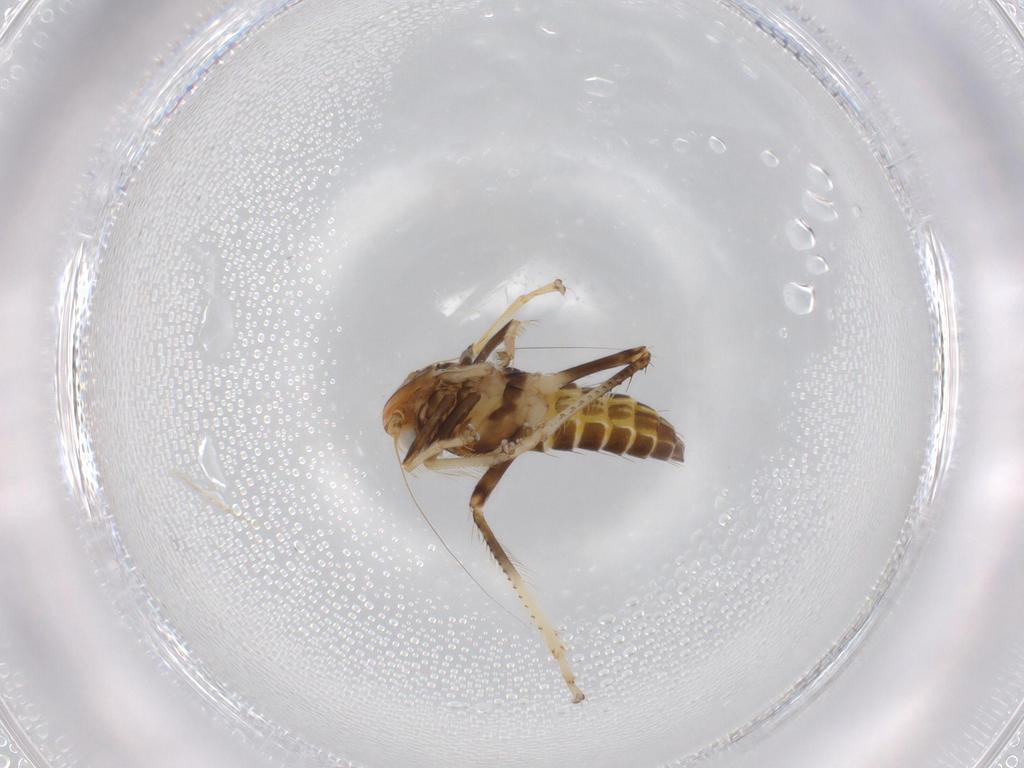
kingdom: Animalia
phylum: Arthropoda
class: Insecta
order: Hemiptera
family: Cicadellidae
